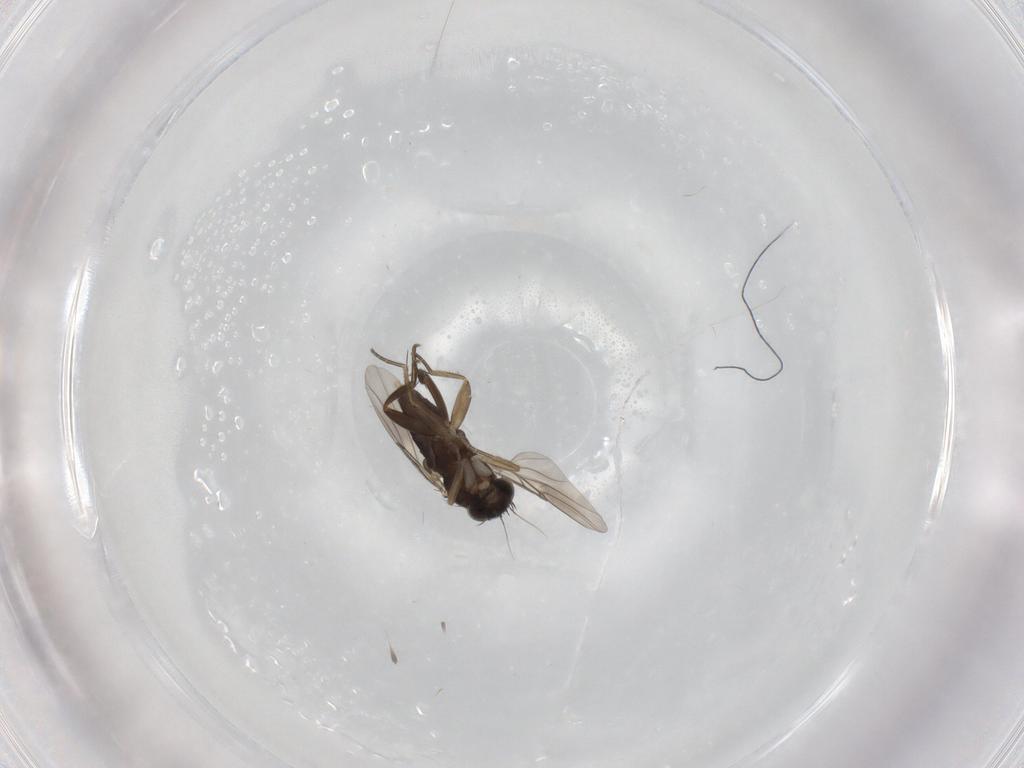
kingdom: Animalia
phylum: Arthropoda
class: Insecta
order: Diptera
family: Phoridae
